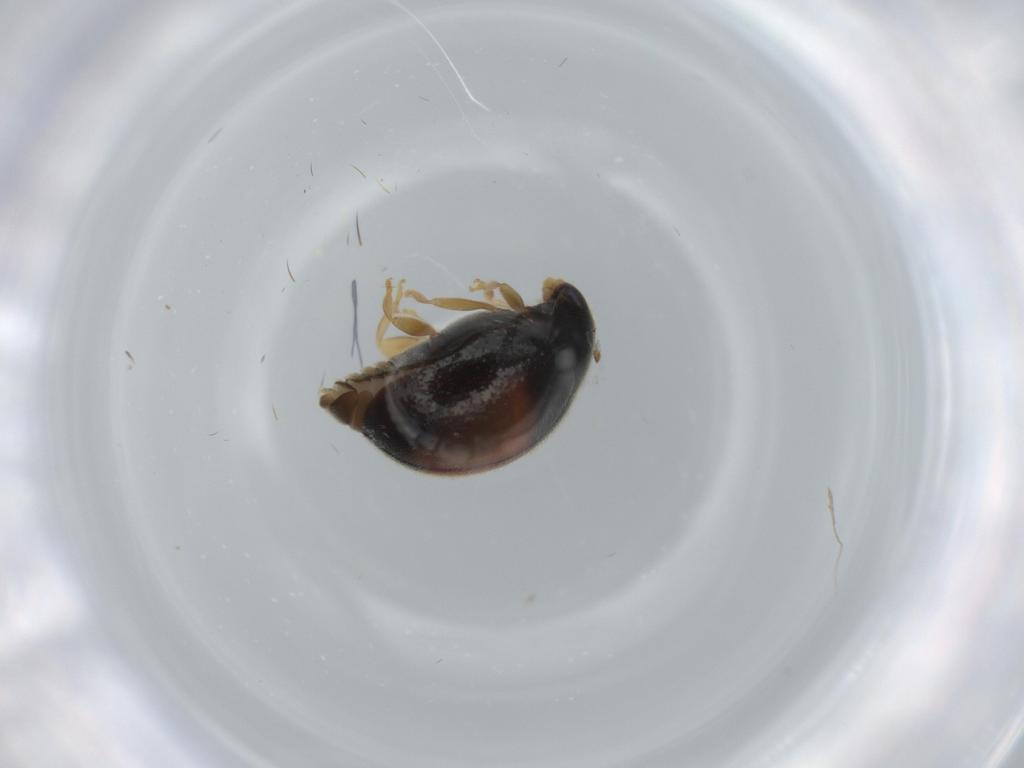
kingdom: Animalia
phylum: Arthropoda
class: Insecta
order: Coleoptera
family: Coccinellidae
